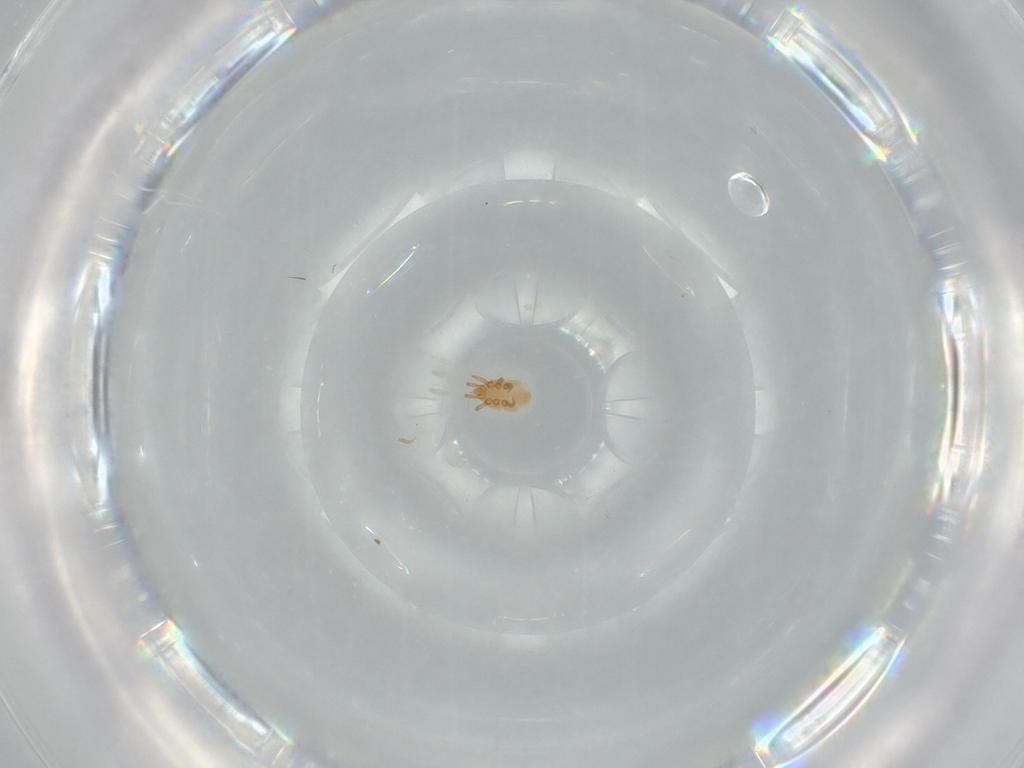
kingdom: Animalia
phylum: Arthropoda
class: Arachnida
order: Mesostigmata
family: Dinychidae
